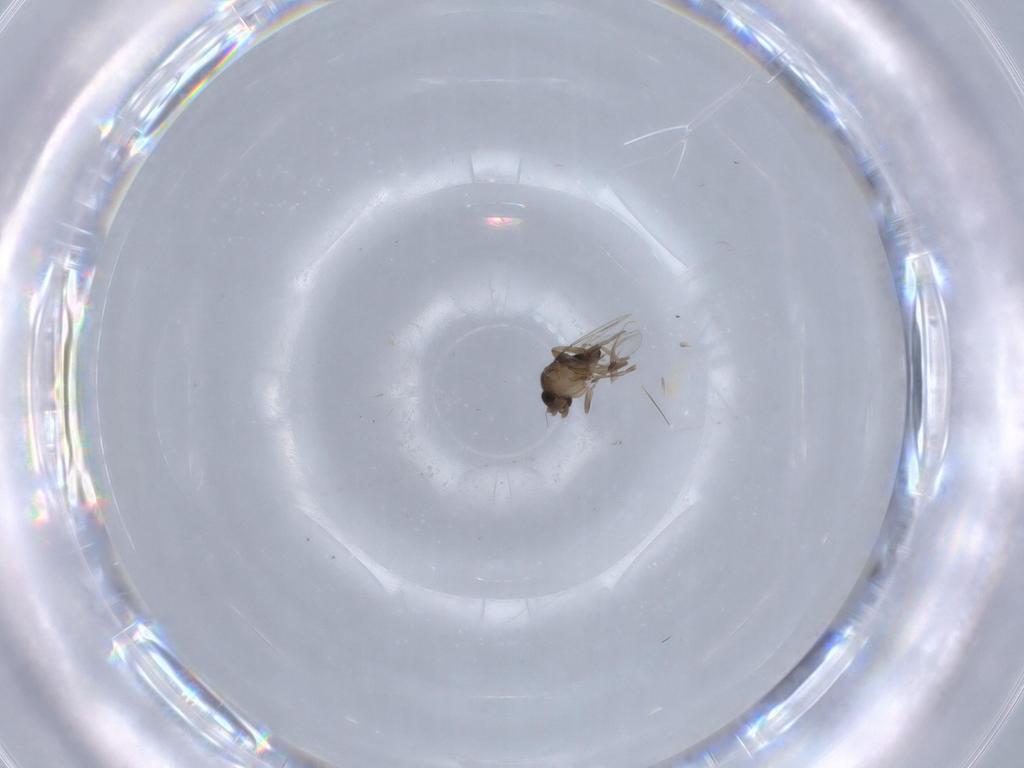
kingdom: Animalia
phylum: Arthropoda
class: Insecta
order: Diptera
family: Phoridae
